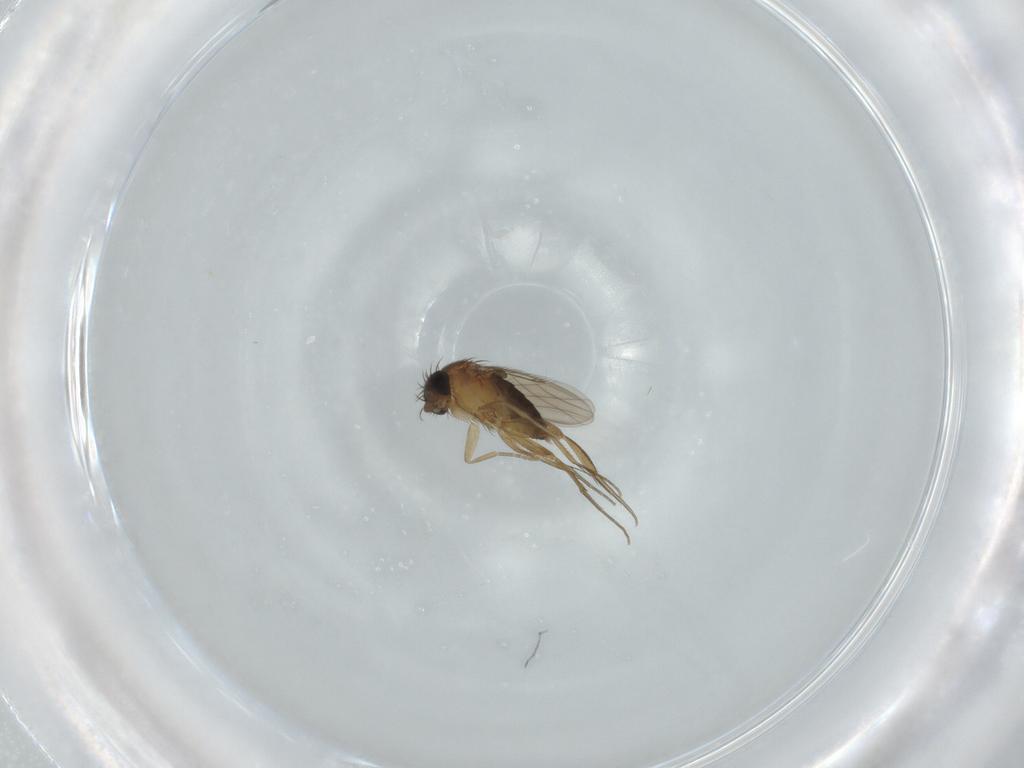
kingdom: Animalia
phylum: Arthropoda
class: Insecta
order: Diptera
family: Phoridae
